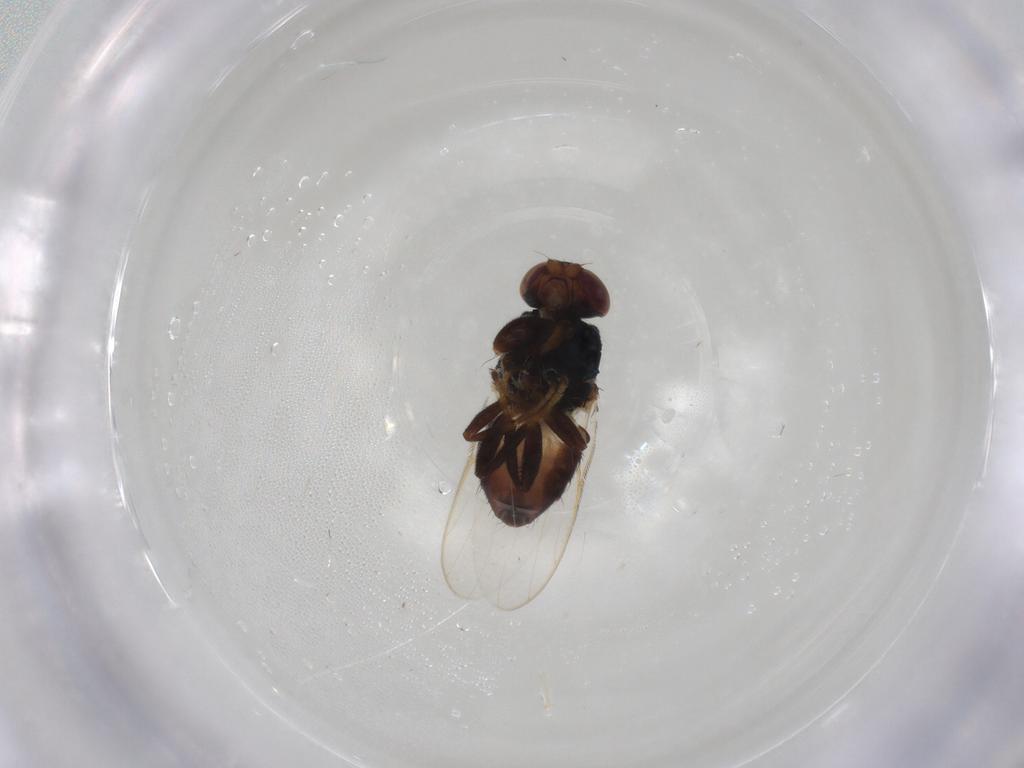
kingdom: Animalia
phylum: Arthropoda
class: Insecta
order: Diptera
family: Chloropidae
